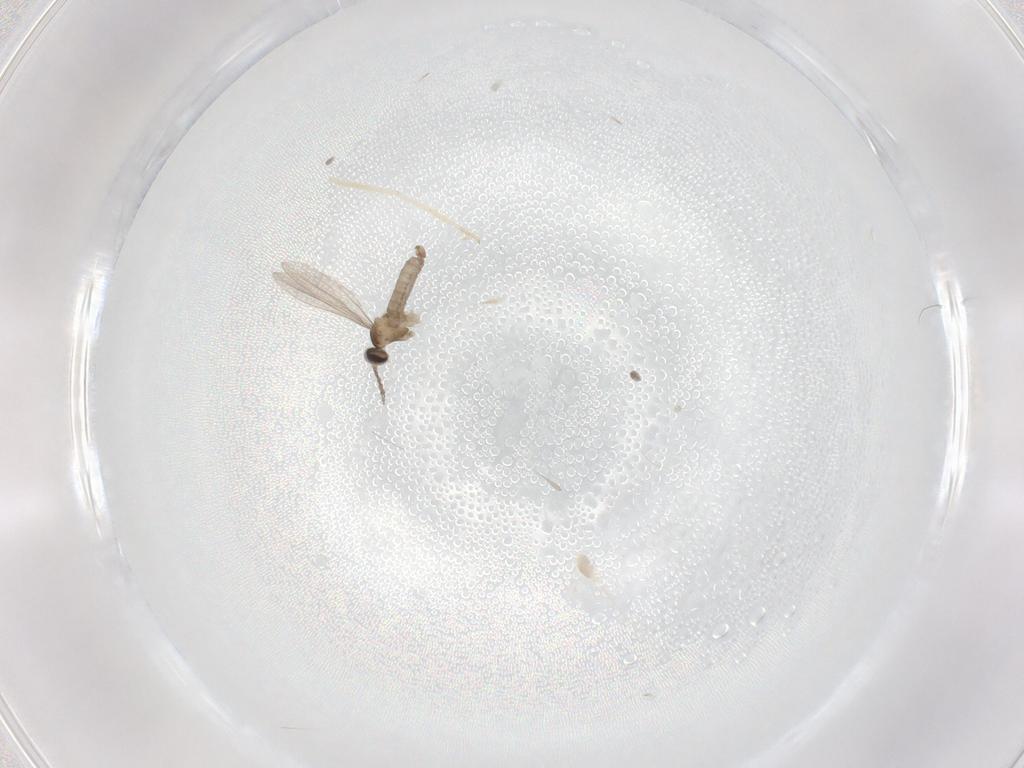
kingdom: Animalia
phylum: Arthropoda
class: Insecta
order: Diptera
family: Cecidomyiidae
